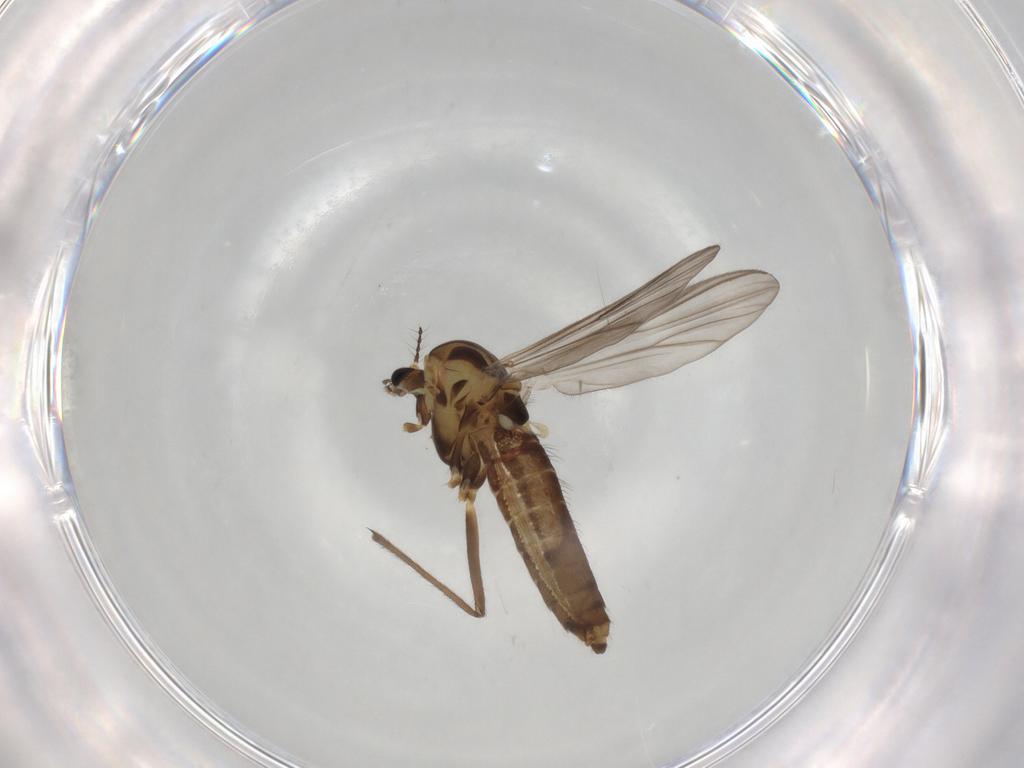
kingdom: Animalia
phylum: Arthropoda
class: Insecta
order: Diptera
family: Chironomidae
